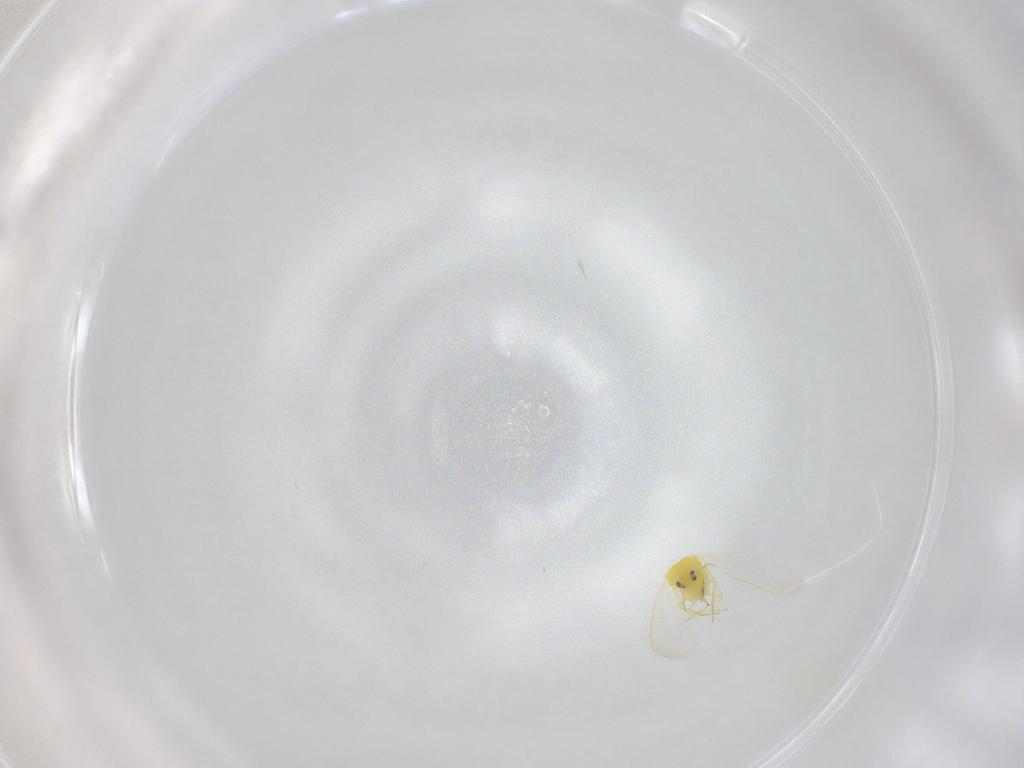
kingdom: Animalia
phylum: Arthropoda
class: Insecta
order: Hemiptera
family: Aleyrodidae
